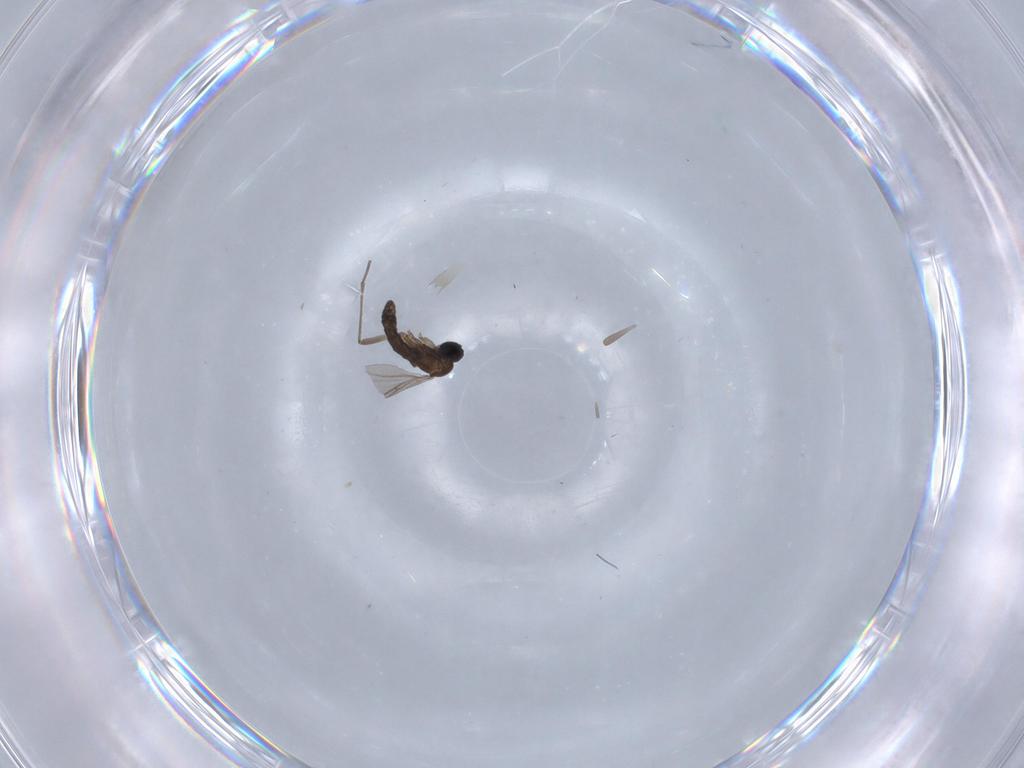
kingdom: Animalia
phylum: Arthropoda
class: Insecta
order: Diptera
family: Sciaridae
